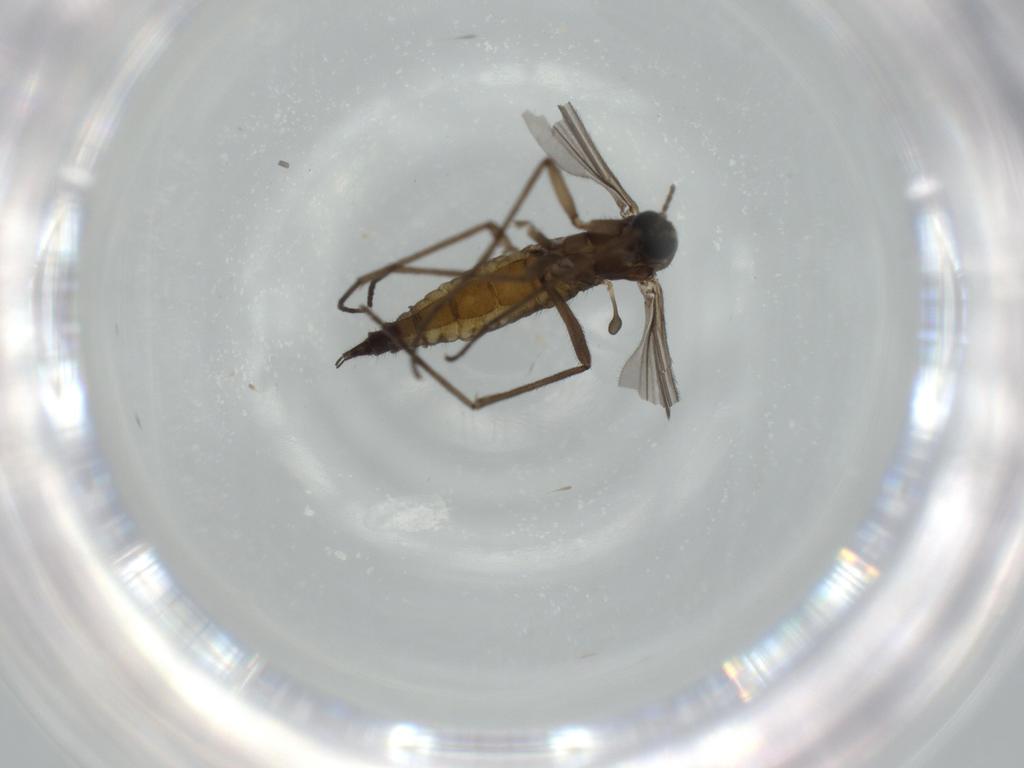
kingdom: Animalia
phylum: Arthropoda
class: Insecta
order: Diptera
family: Sciaridae
